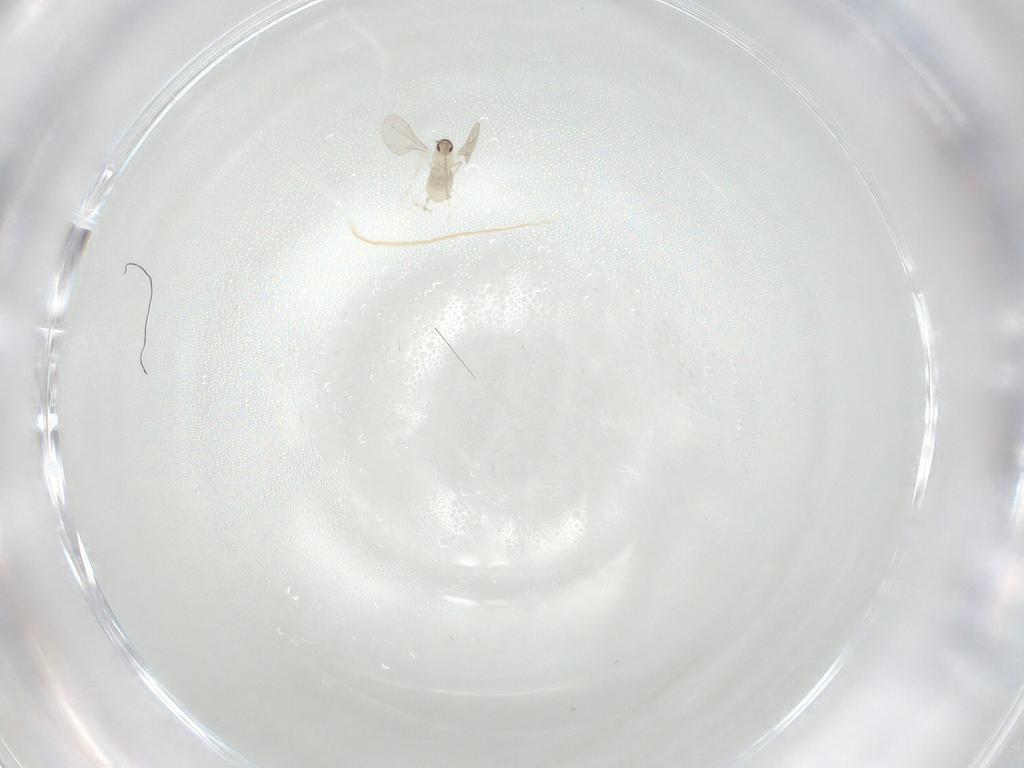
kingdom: Animalia
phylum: Arthropoda
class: Insecta
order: Diptera
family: Cecidomyiidae
